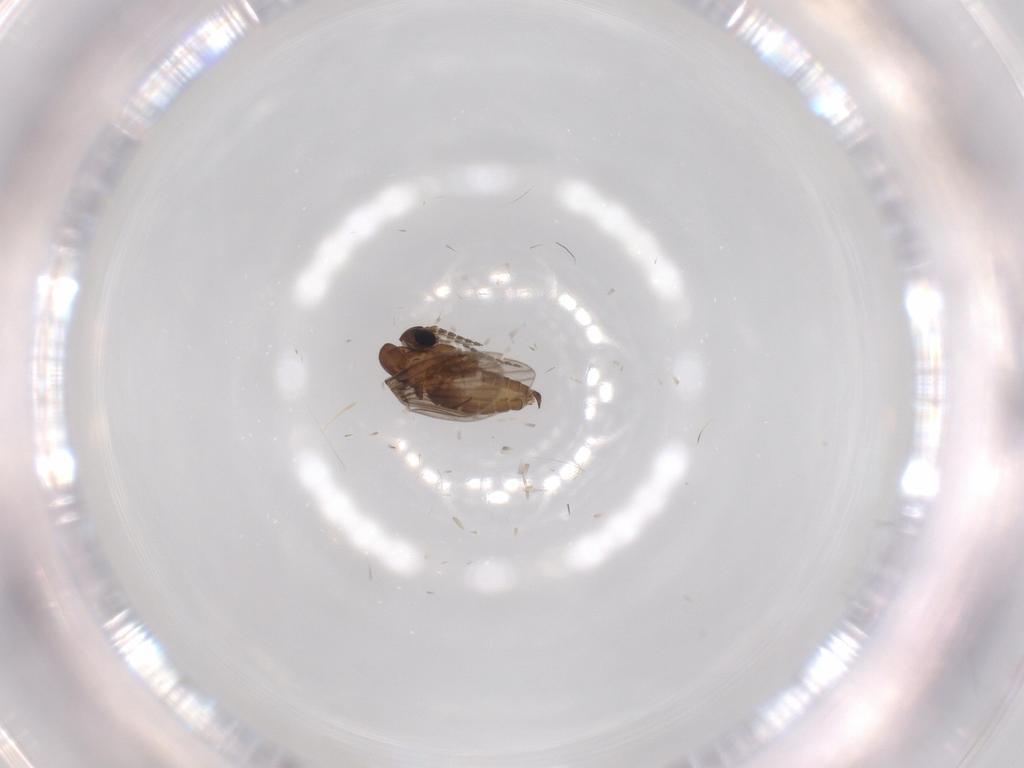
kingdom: Animalia
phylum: Arthropoda
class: Insecta
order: Diptera
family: Psychodidae
